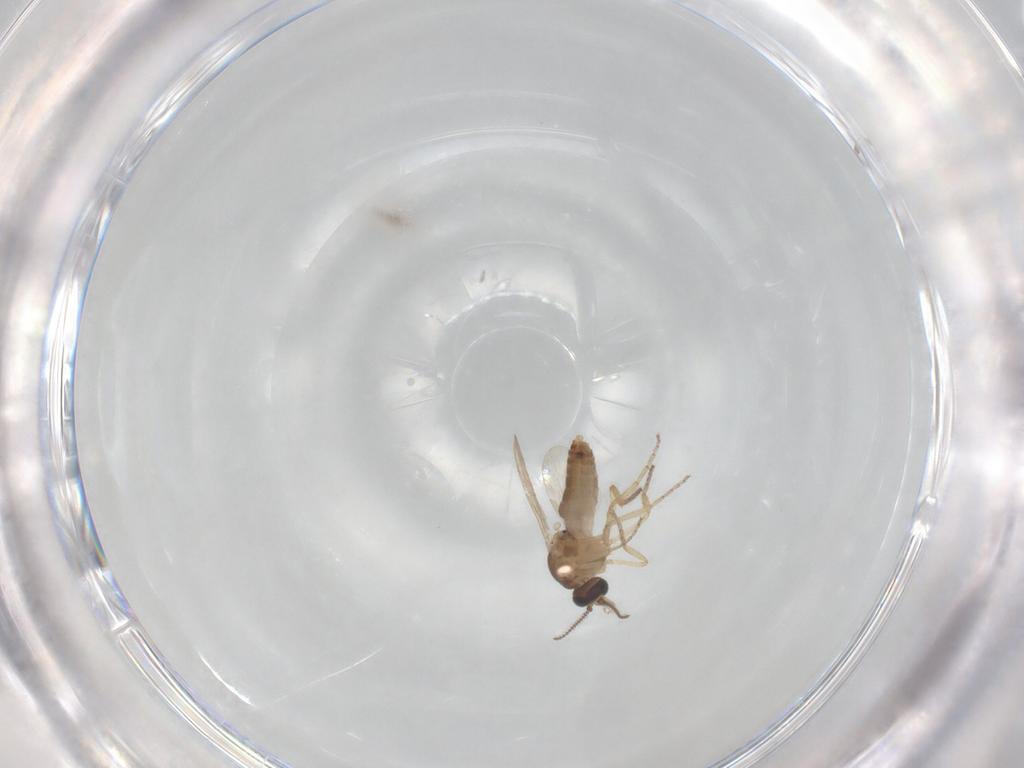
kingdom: Animalia
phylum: Arthropoda
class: Insecta
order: Diptera
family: Ceratopogonidae
